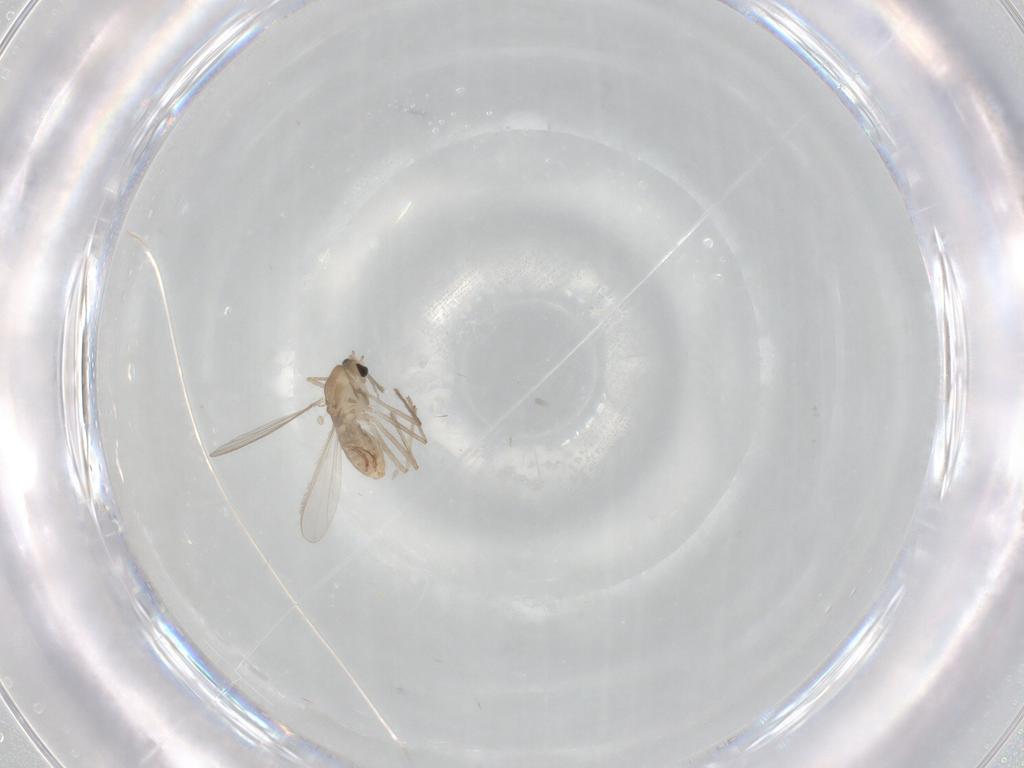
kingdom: Animalia
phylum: Arthropoda
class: Insecta
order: Diptera
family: Chironomidae
